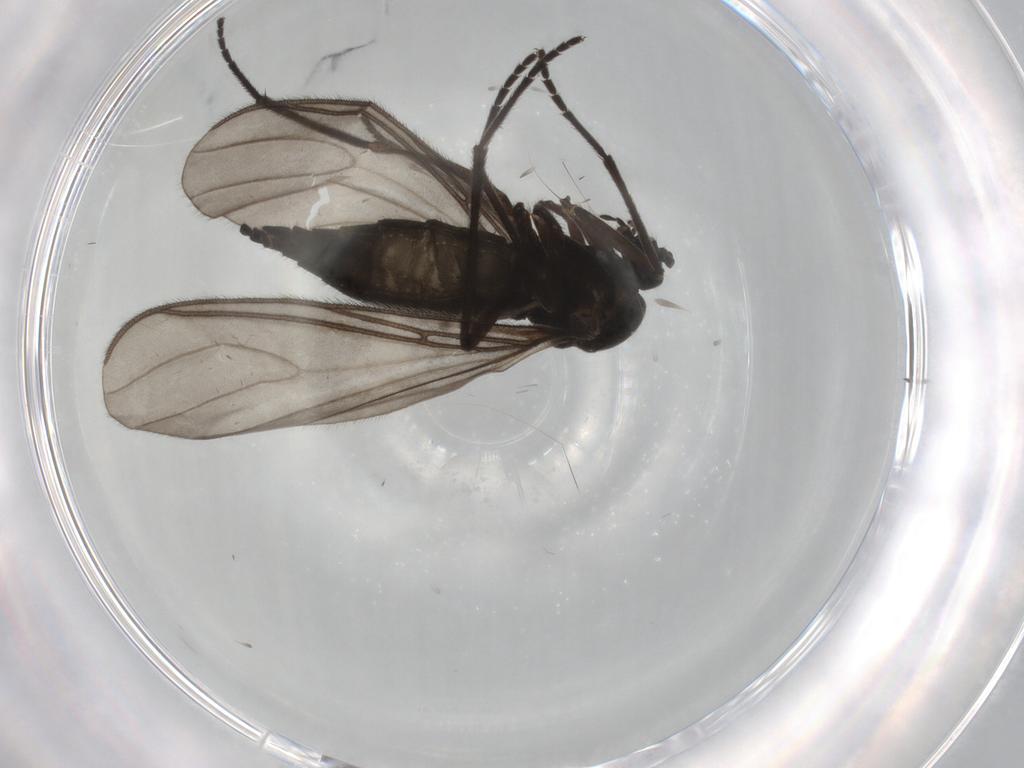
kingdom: Animalia
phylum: Arthropoda
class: Insecta
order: Diptera
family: Sciaridae
